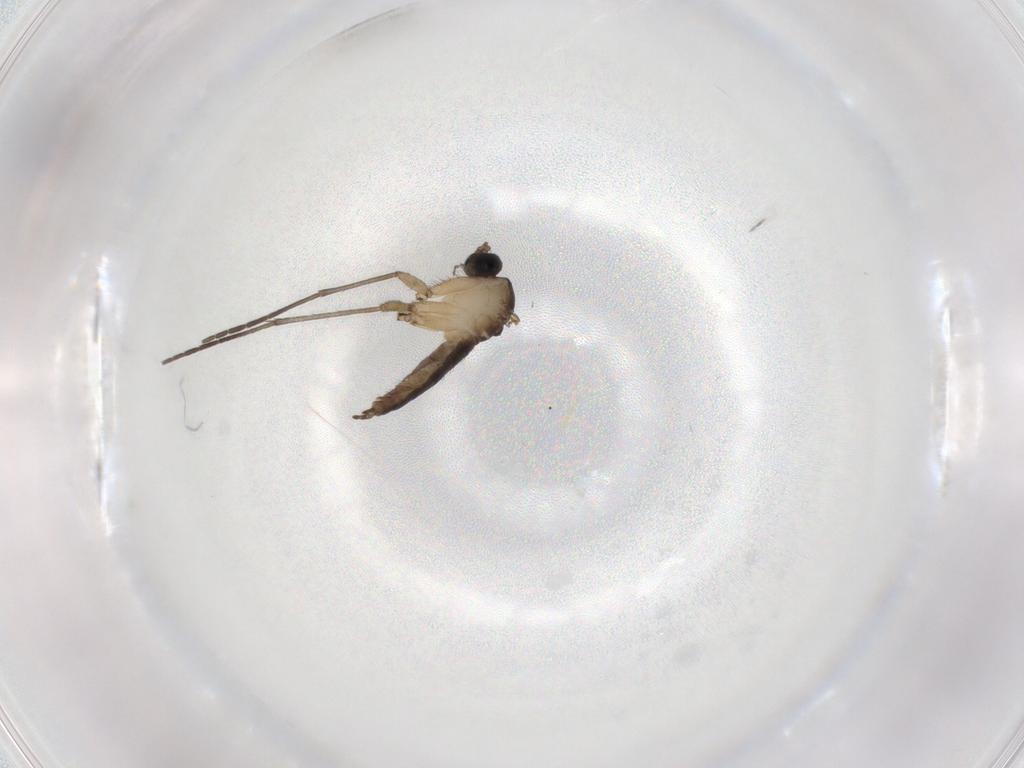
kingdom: Animalia
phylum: Arthropoda
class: Insecta
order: Diptera
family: Sciaridae
